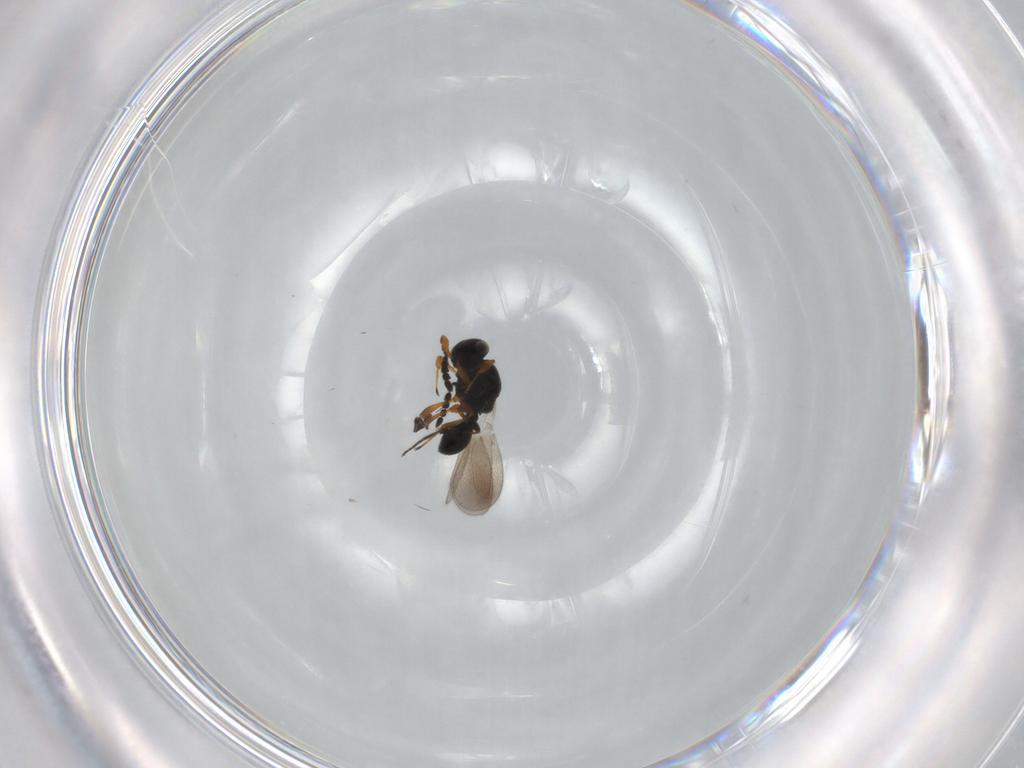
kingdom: Animalia
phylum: Arthropoda
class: Insecta
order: Hymenoptera
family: Platygastridae
